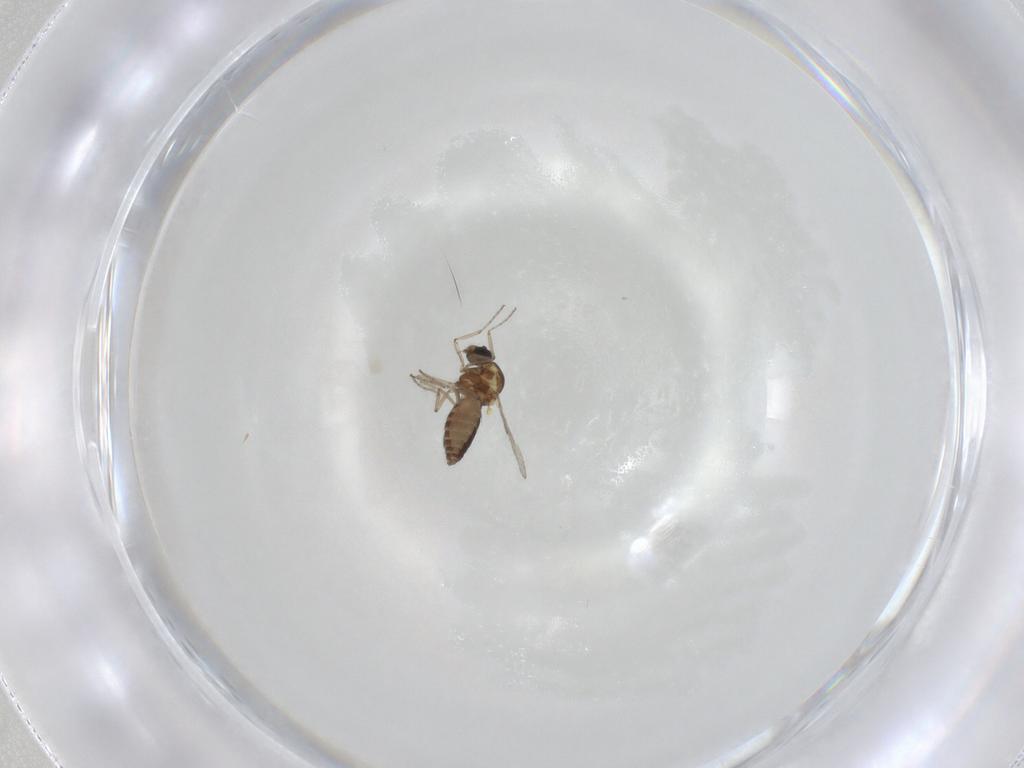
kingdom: Animalia
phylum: Arthropoda
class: Insecta
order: Diptera
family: Ceratopogonidae
